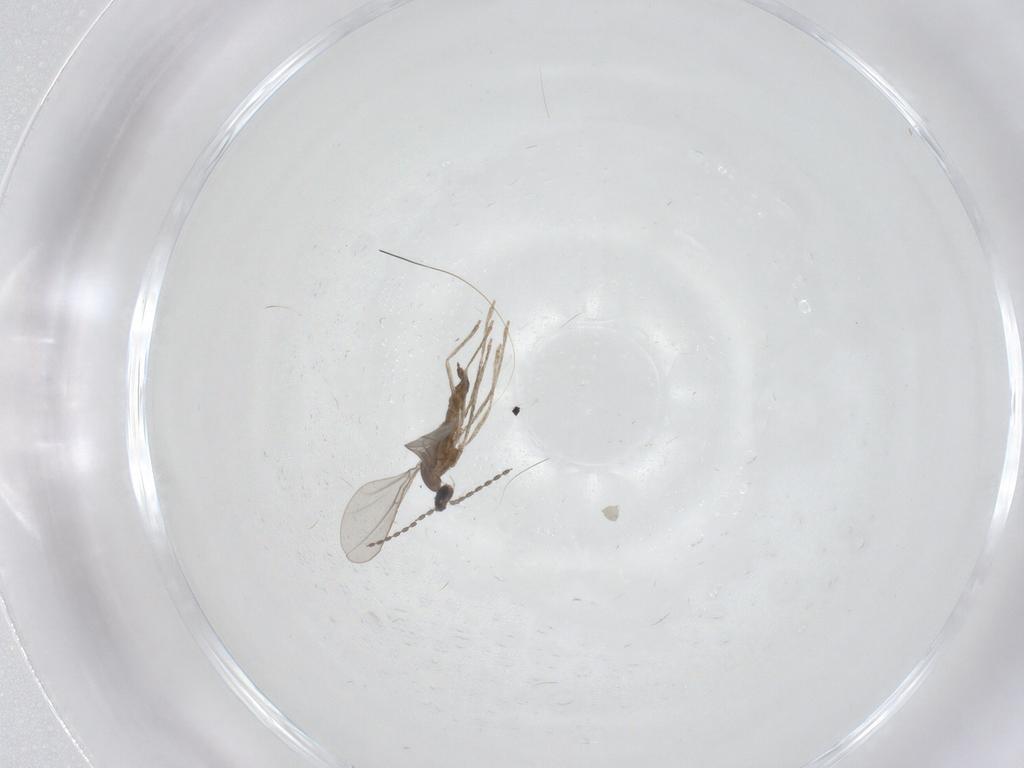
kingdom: Animalia
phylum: Arthropoda
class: Insecta
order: Diptera
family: Cecidomyiidae
